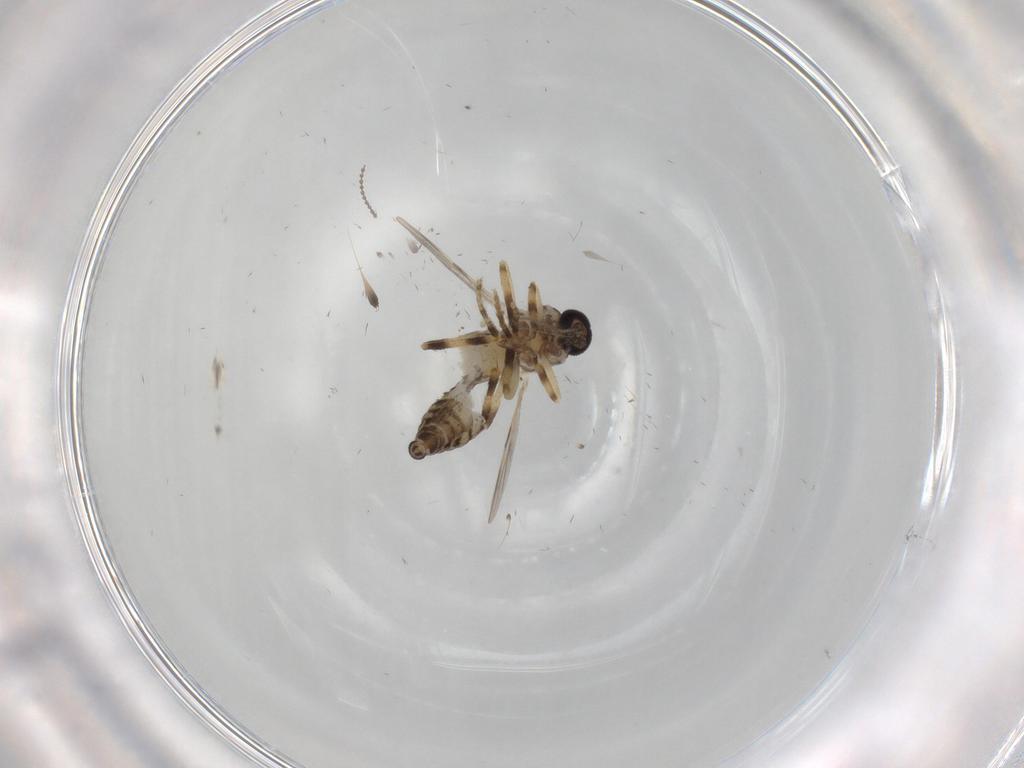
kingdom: Animalia
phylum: Arthropoda
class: Insecta
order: Diptera
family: Ceratopogonidae
